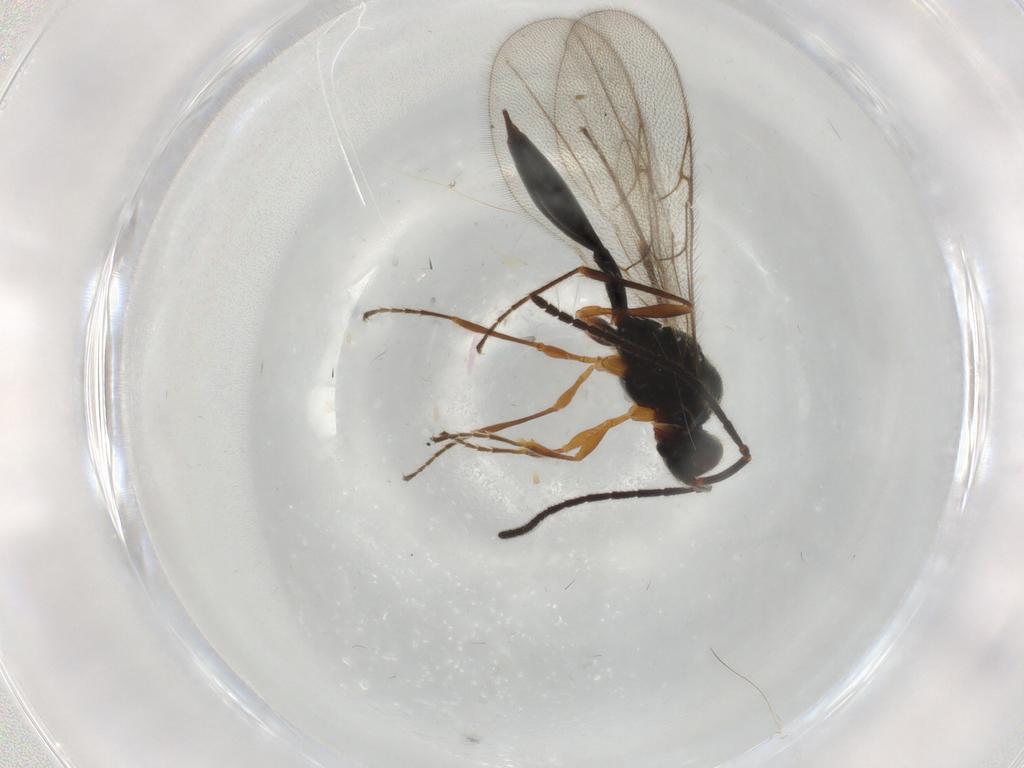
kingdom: Animalia
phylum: Arthropoda
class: Insecta
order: Hymenoptera
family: Diapriidae
